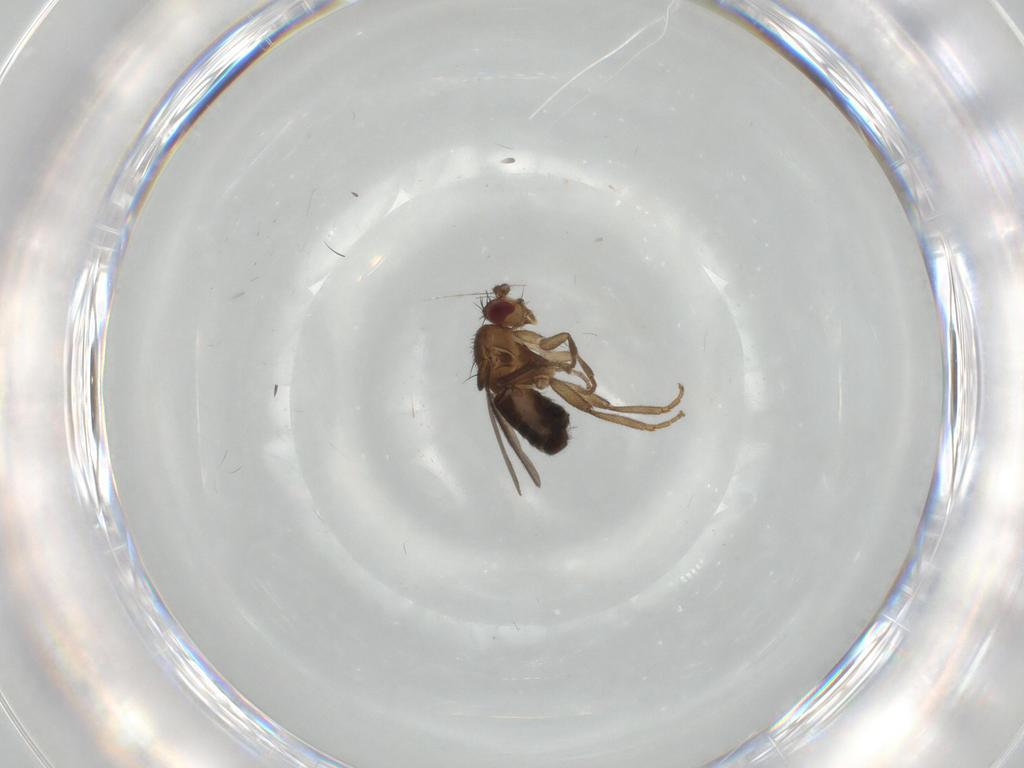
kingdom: Animalia
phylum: Arthropoda
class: Insecta
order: Diptera
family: Sphaeroceridae
